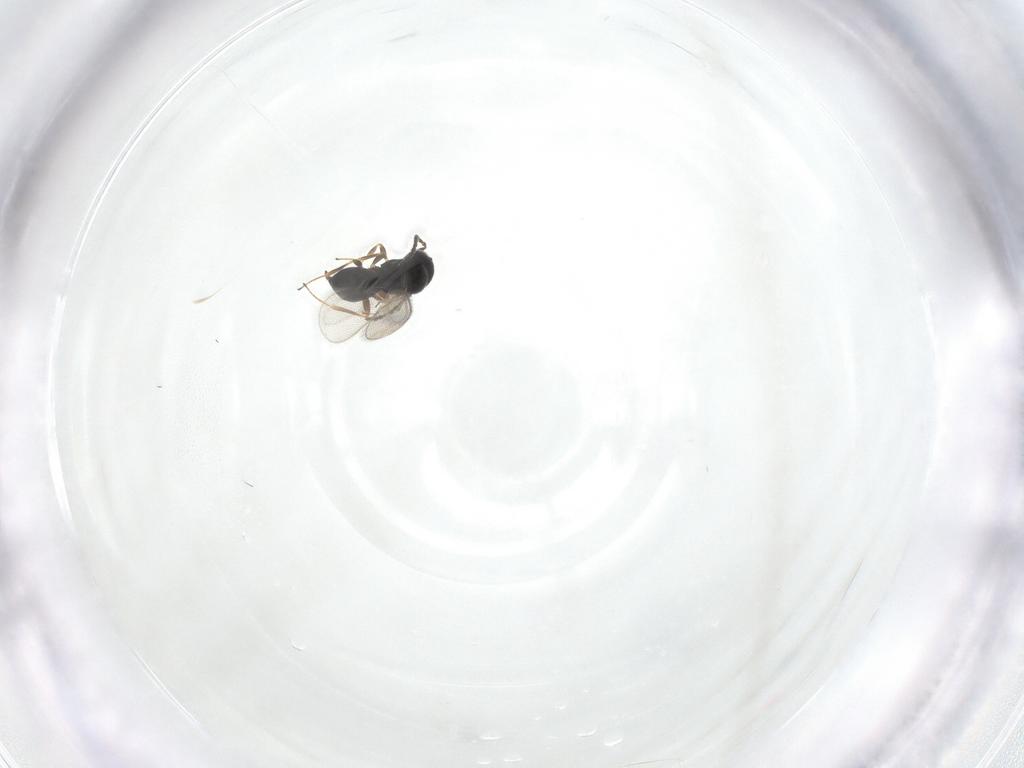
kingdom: Animalia
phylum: Arthropoda
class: Insecta
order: Hymenoptera
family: Scelionidae
